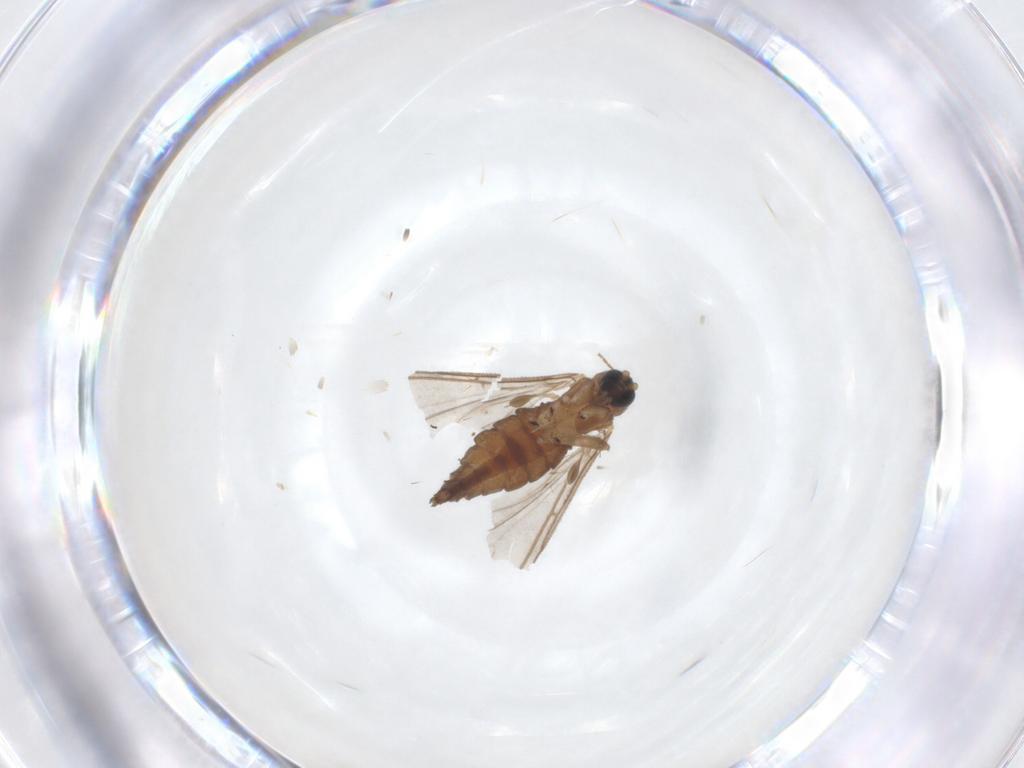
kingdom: Animalia
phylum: Arthropoda
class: Insecta
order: Diptera
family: Sciaridae
